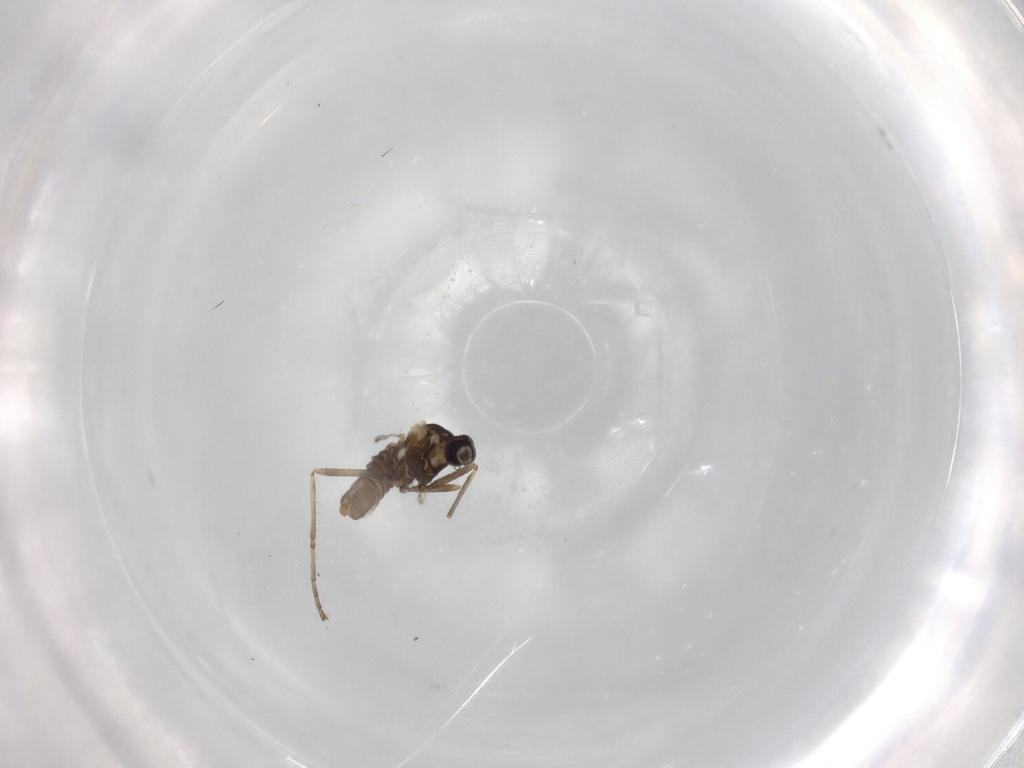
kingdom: Animalia
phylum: Arthropoda
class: Insecta
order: Diptera
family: Cecidomyiidae
